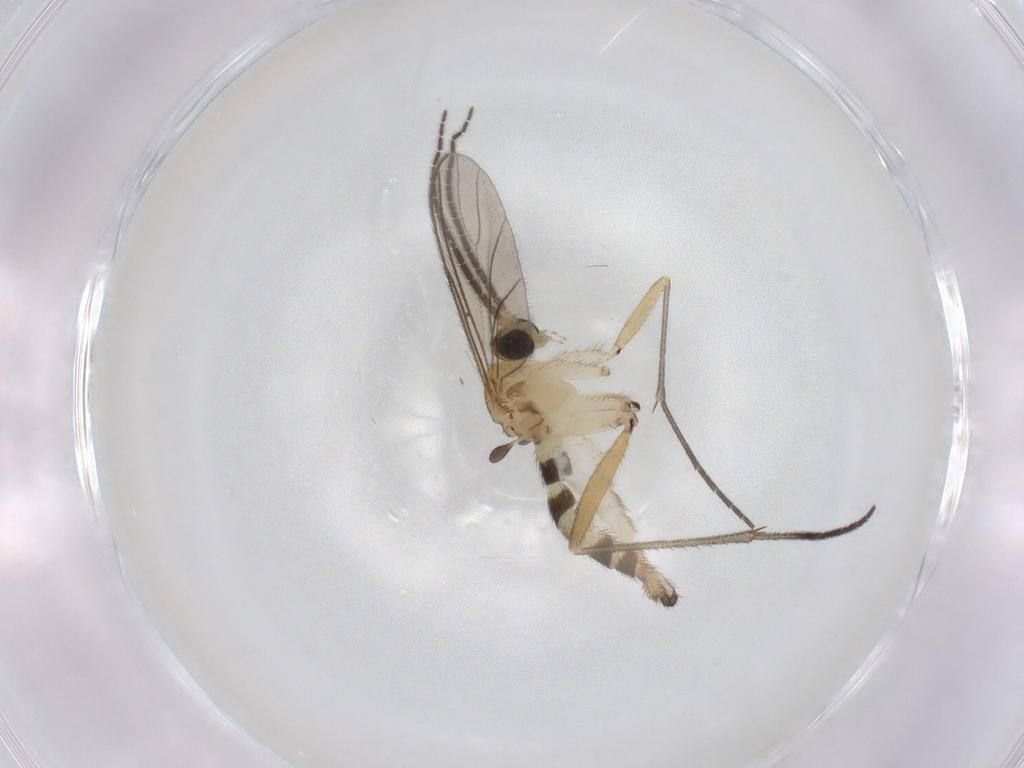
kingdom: Animalia
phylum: Arthropoda
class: Insecta
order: Diptera
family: Sciaridae
